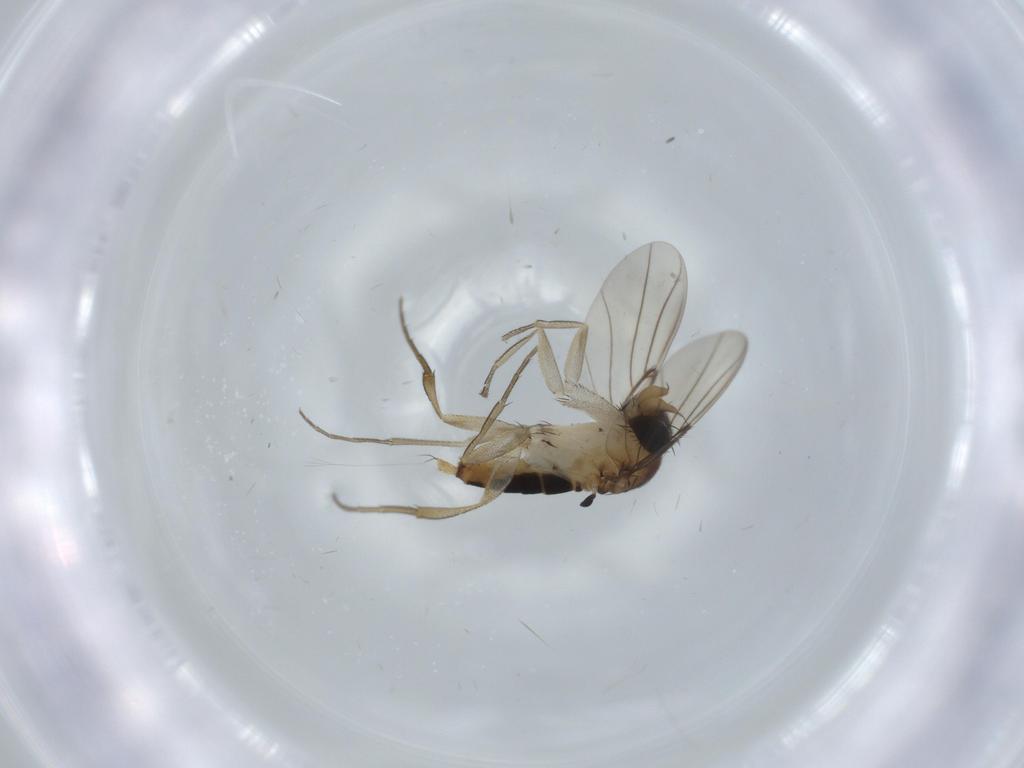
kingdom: Animalia
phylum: Arthropoda
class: Insecta
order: Diptera
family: Phoridae
